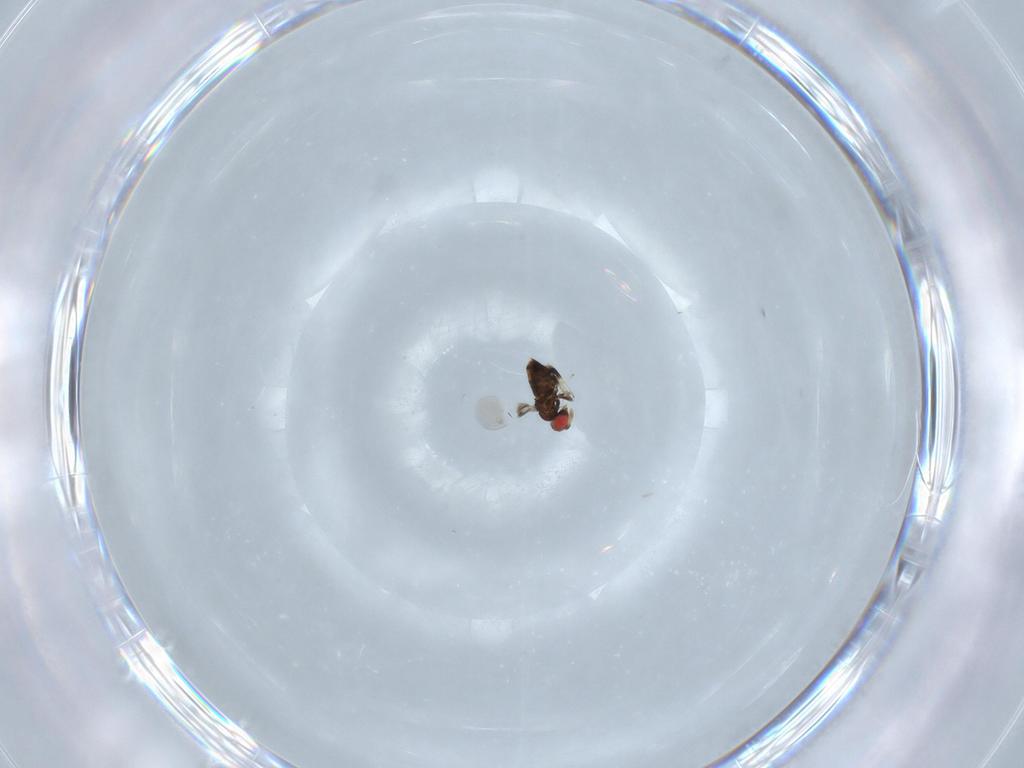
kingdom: Animalia
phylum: Arthropoda
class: Insecta
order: Hymenoptera
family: Trichogrammatidae
